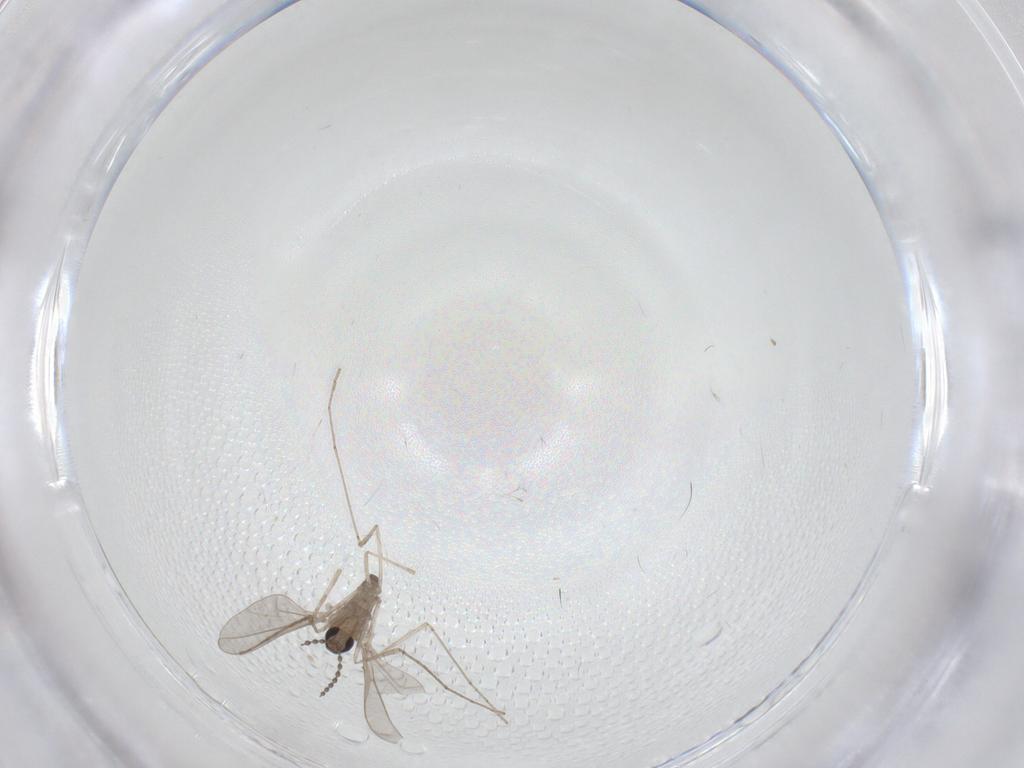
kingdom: Animalia
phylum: Arthropoda
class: Insecta
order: Diptera
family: Cecidomyiidae
